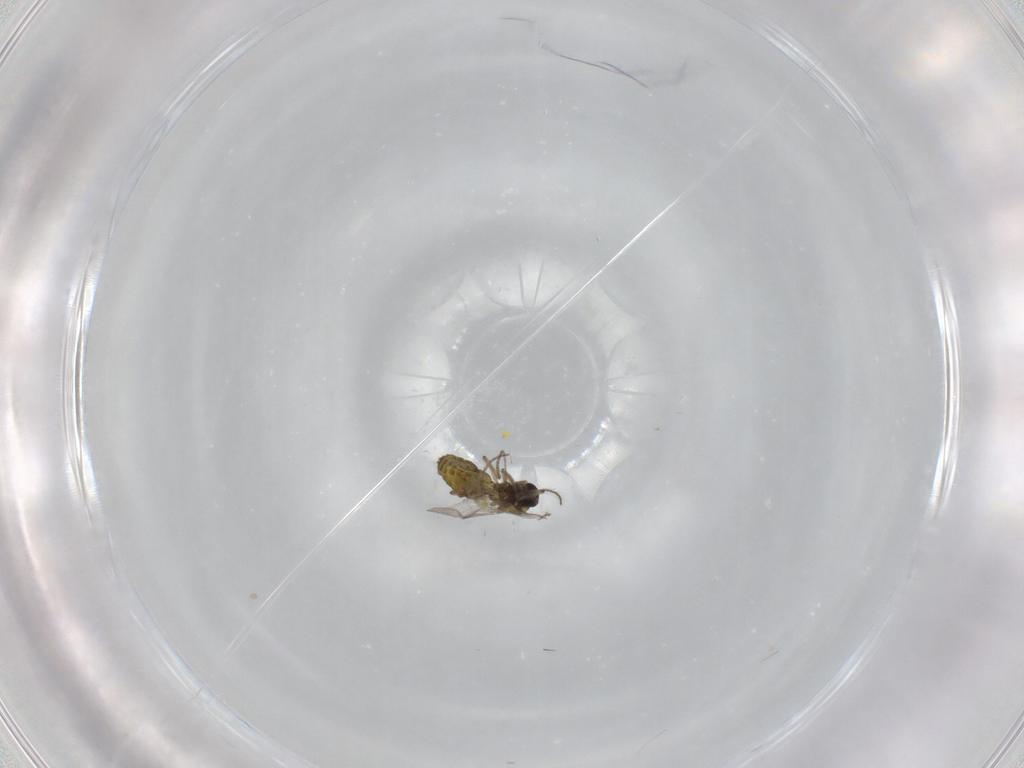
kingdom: Animalia
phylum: Arthropoda
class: Insecta
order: Diptera
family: Ceratopogonidae
